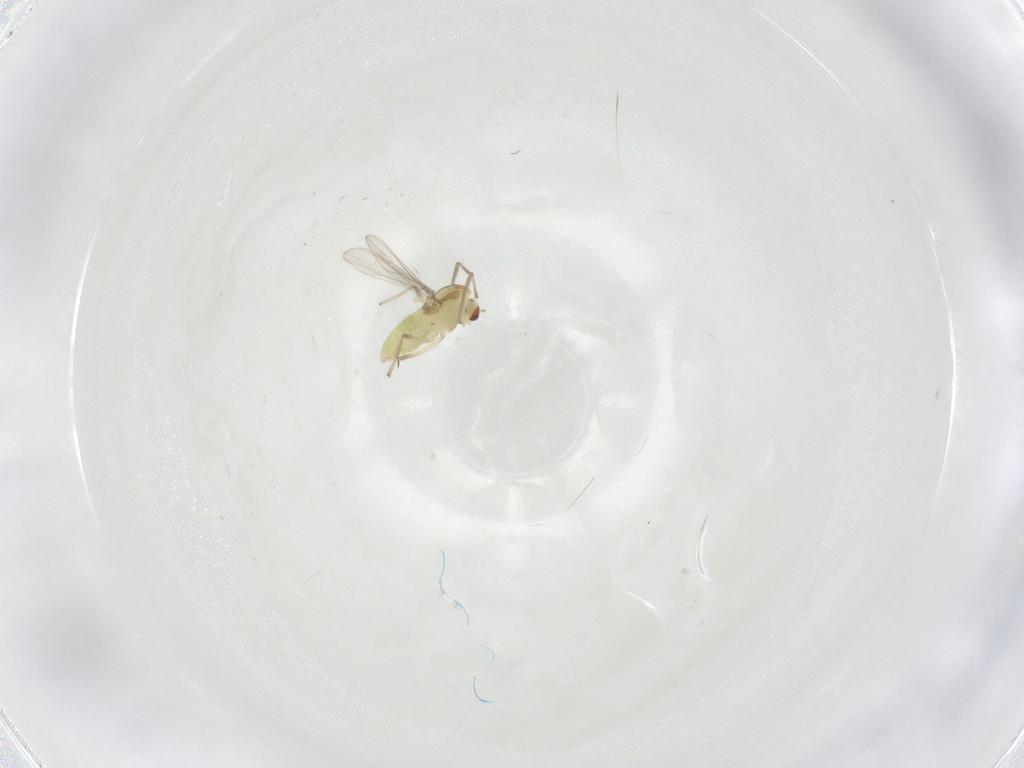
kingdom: Animalia
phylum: Arthropoda
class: Insecta
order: Diptera
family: Chironomidae
